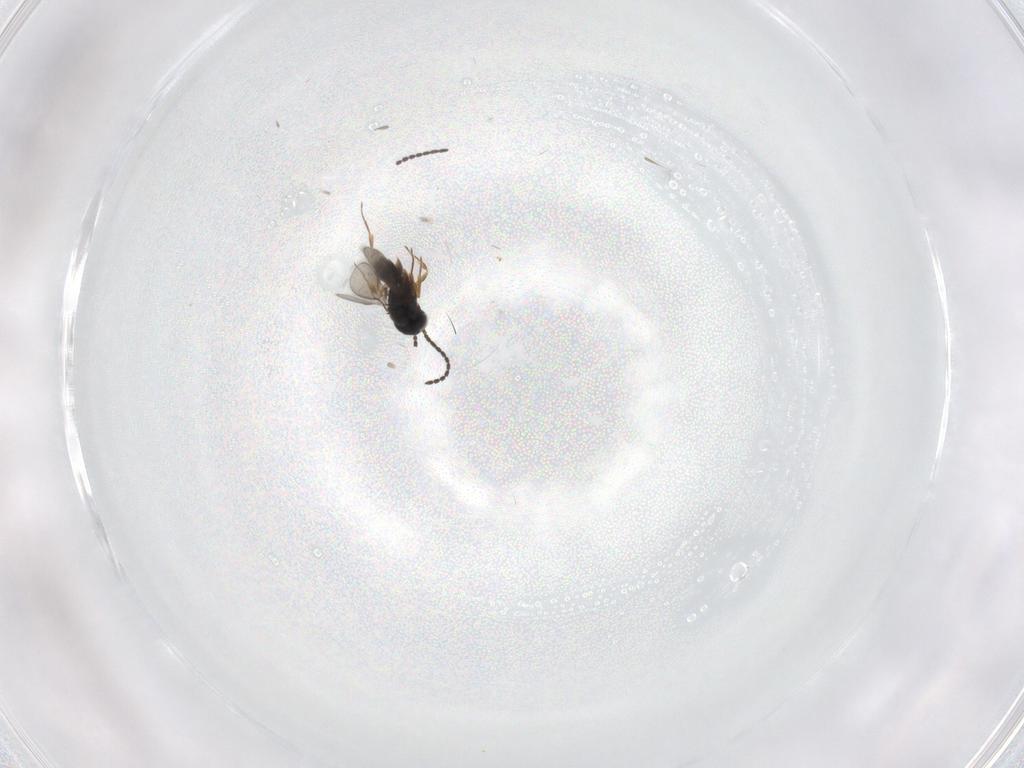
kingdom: Animalia
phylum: Arthropoda
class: Insecta
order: Hymenoptera
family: Scelionidae
